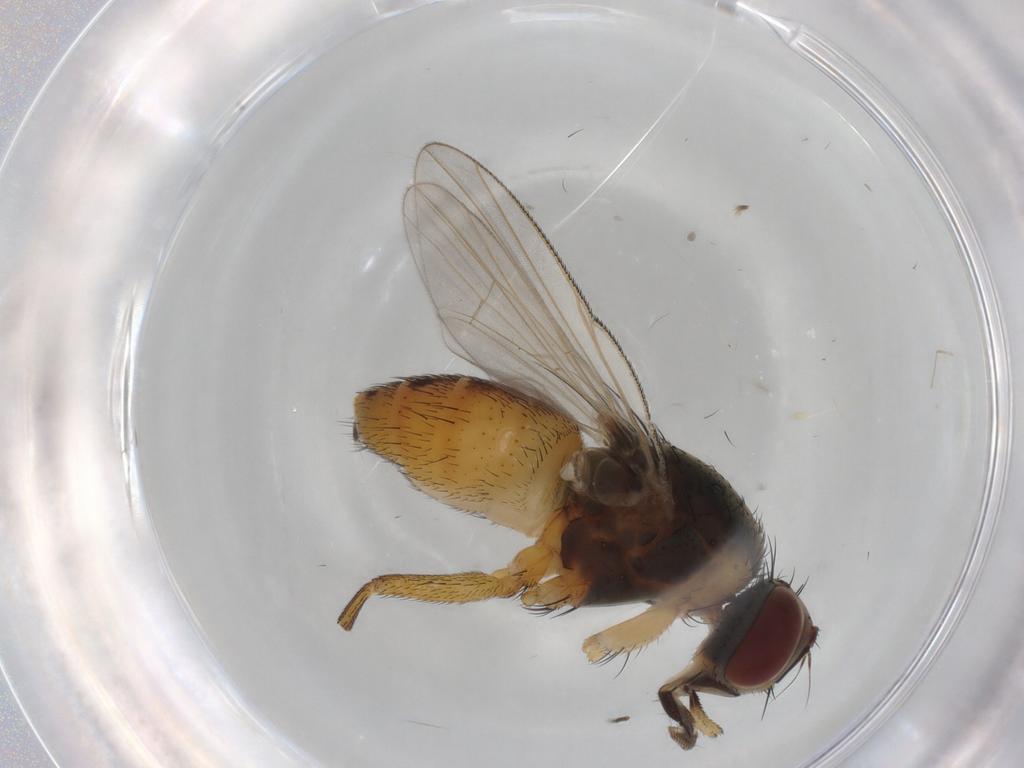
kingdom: Animalia
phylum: Arthropoda
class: Insecta
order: Diptera
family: Muscidae
